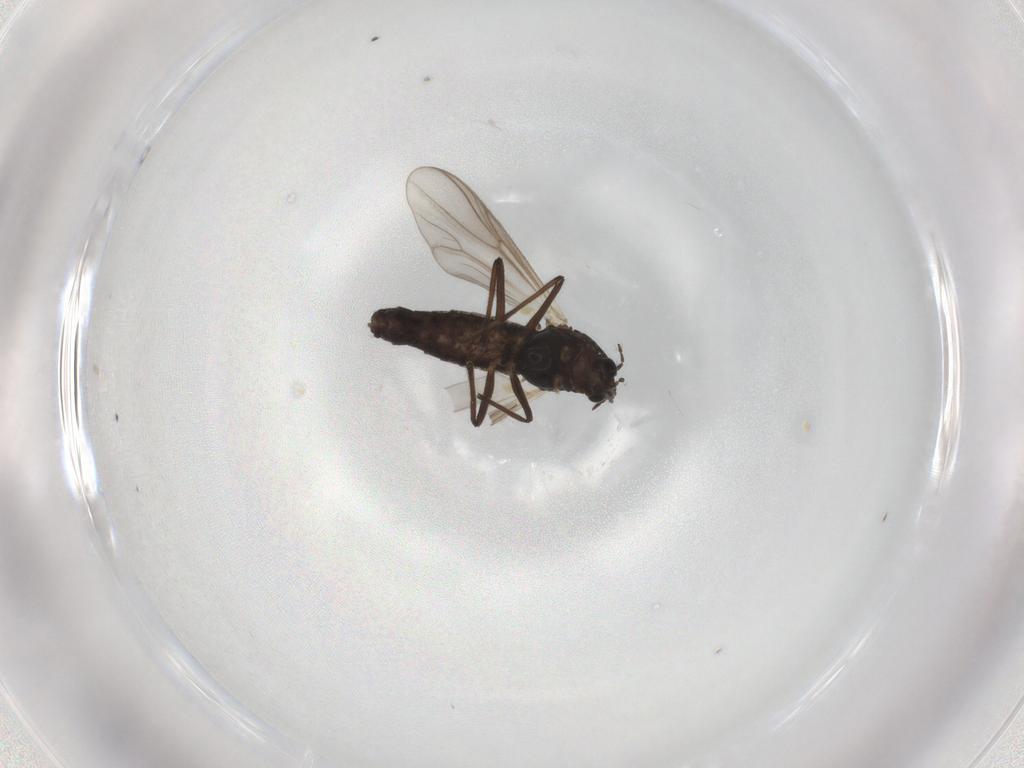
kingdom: Animalia
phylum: Arthropoda
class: Insecta
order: Diptera
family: Chironomidae
